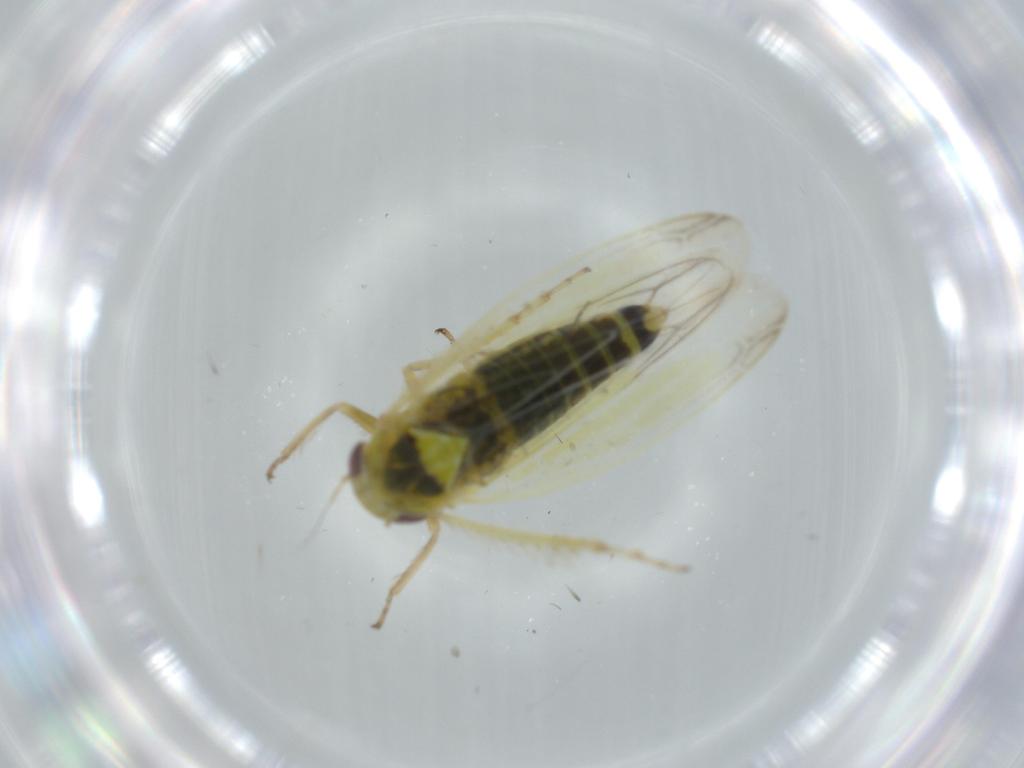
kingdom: Animalia
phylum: Arthropoda
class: Insecta
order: Hemiptera
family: Cicadellidae
